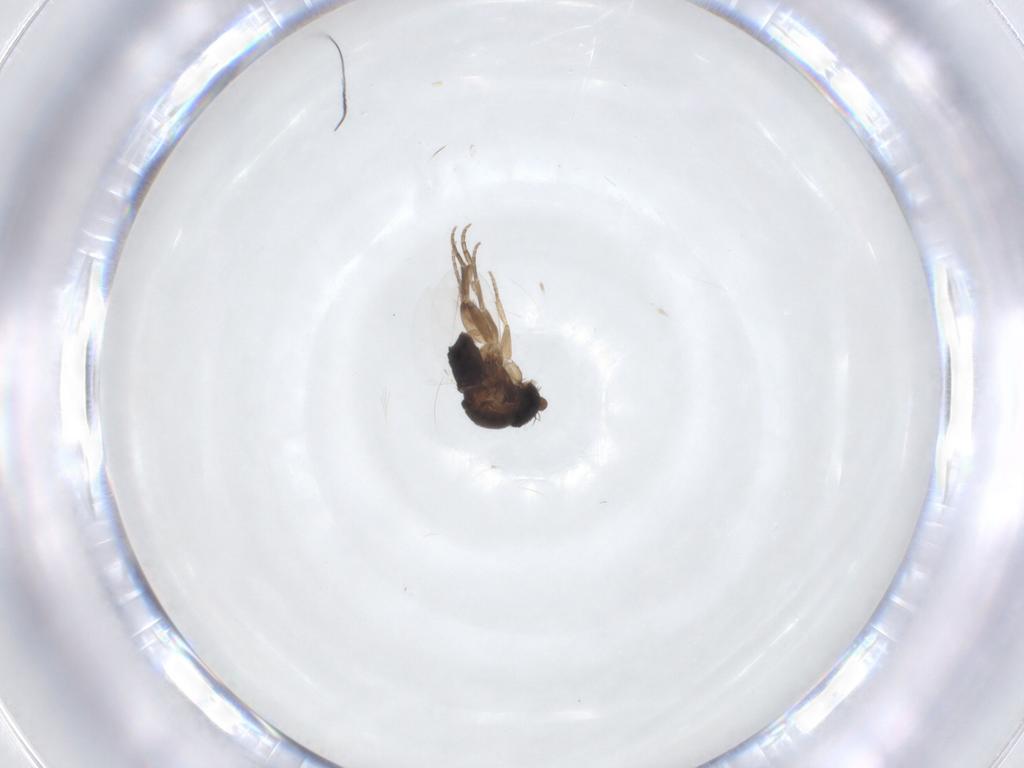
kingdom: Animalia
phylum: Arthropoda
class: Insecta
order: Diptera
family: Phoridae
